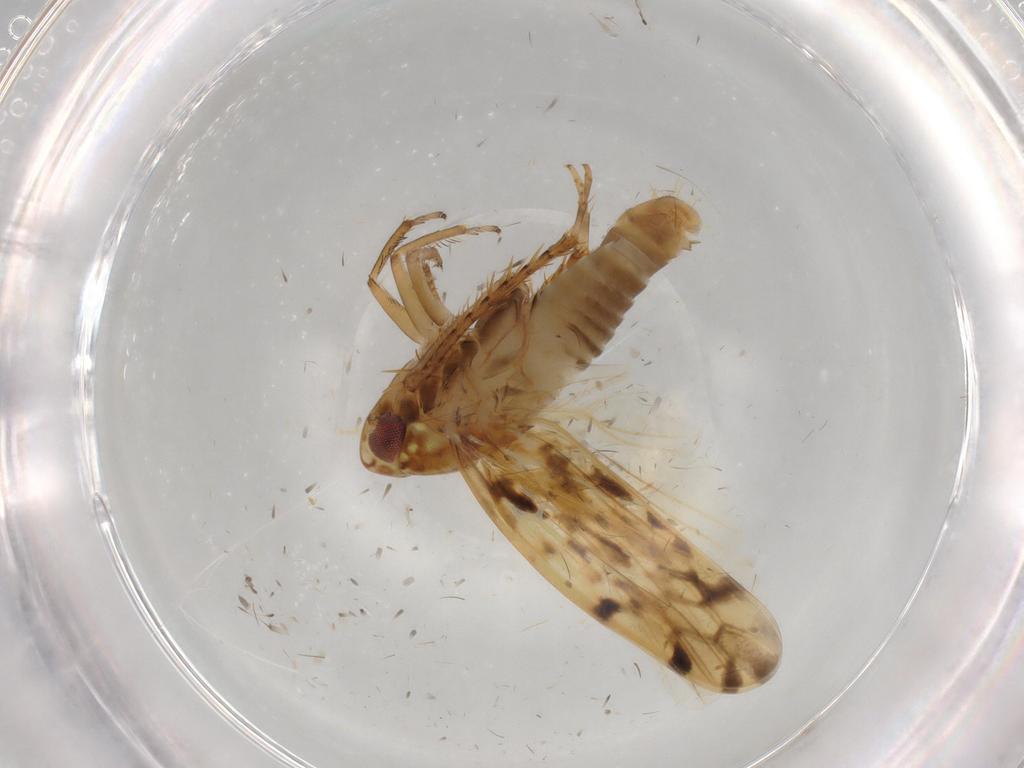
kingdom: Animalia
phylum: Arthropoda
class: Insecta
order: Hemiptera
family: Cicadellidae
